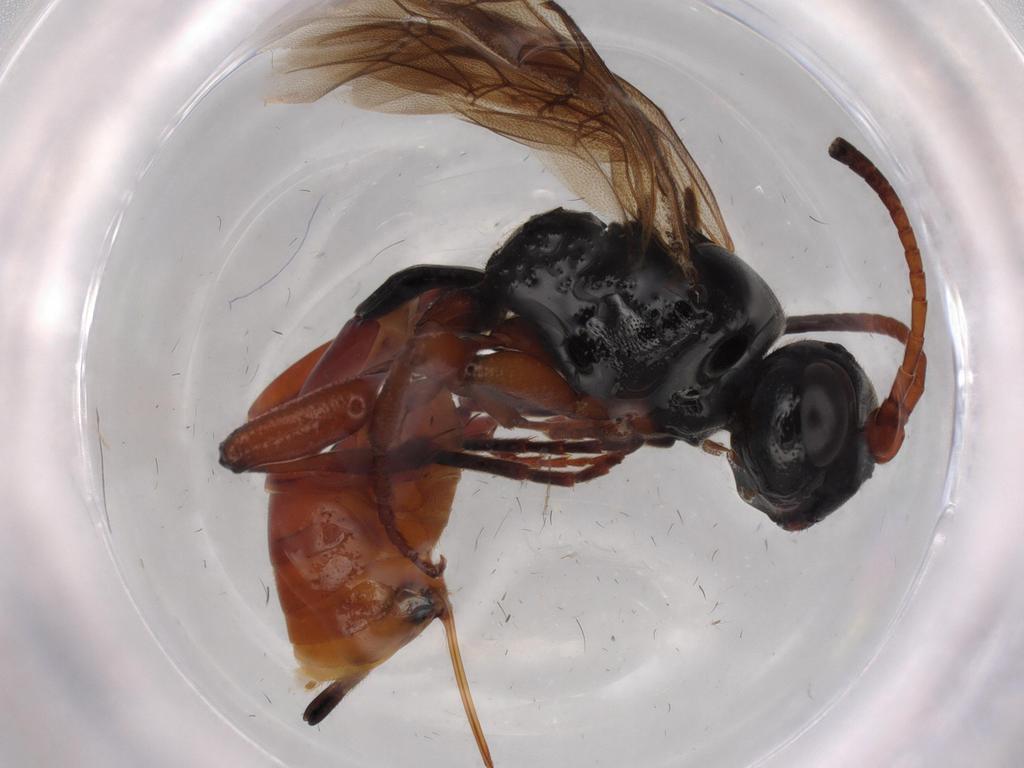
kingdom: Animalia
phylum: Arthropoda
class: Insecta
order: Hymenoptera
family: Ichneumonidae
